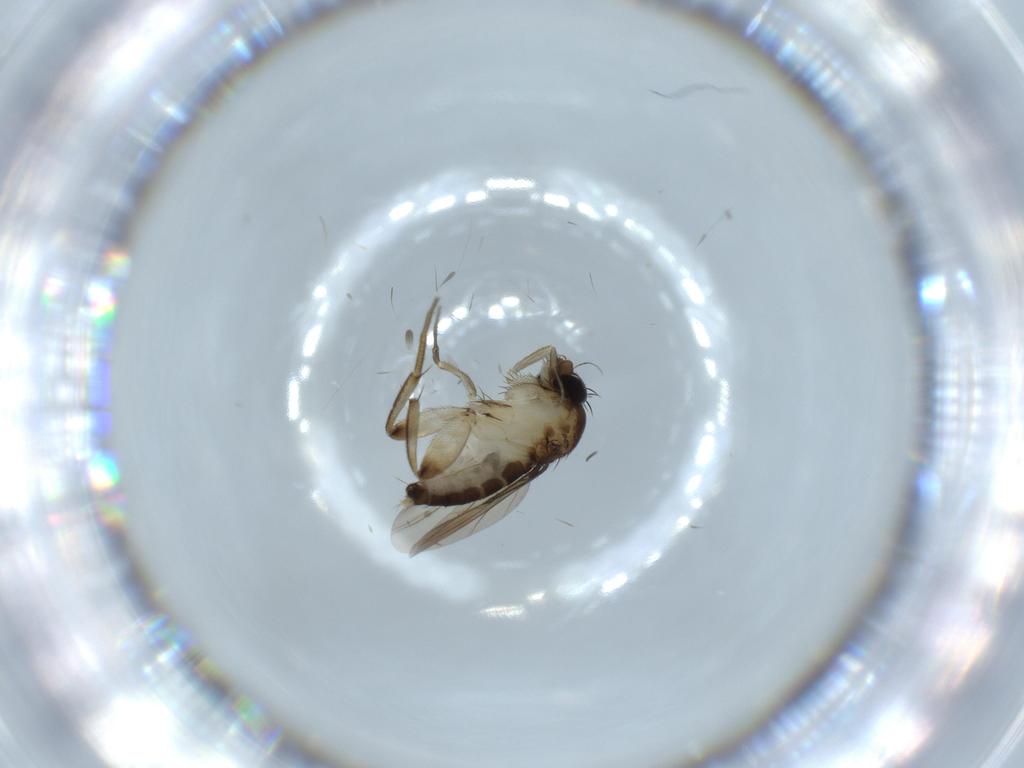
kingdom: Animalia
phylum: Arthropoda
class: Insecta
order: Diptera
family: Phoridae
